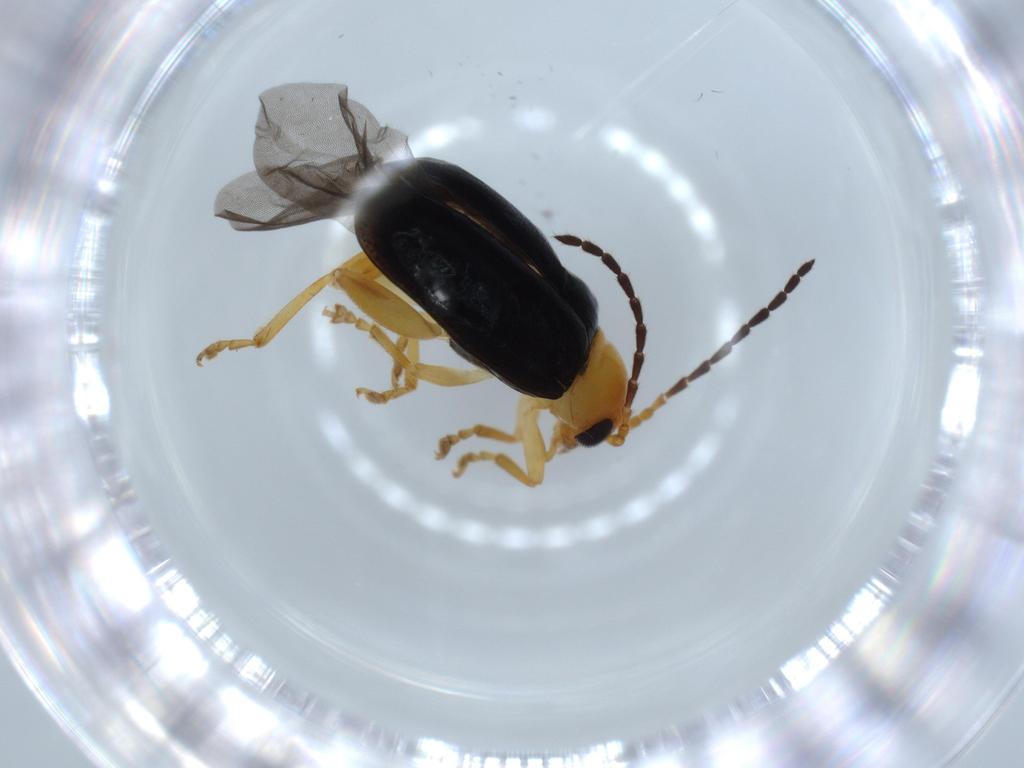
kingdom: Animalia
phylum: Arthropoda
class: Insecta
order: Coleoptera
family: Chrysomelidae
